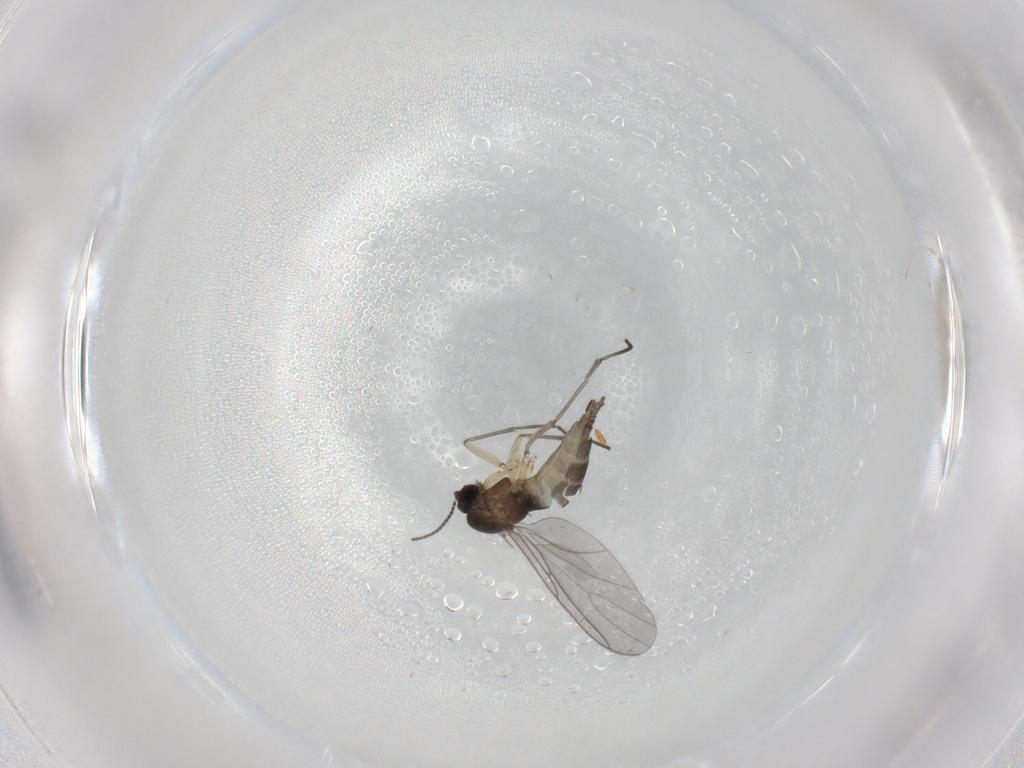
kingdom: Animalia
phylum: Arthropoda
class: Insecta
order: Diptera
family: Sciaridae
